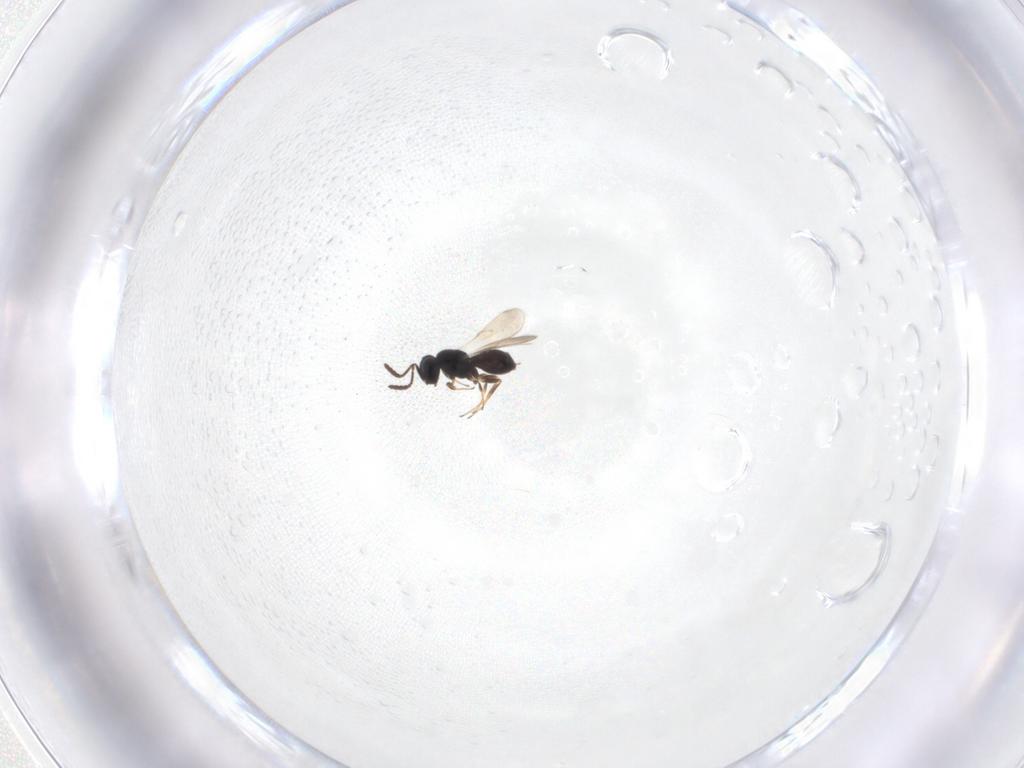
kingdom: Animalia
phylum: Arthropoda
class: Insecta
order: Hymenoptera
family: Scelionidae
